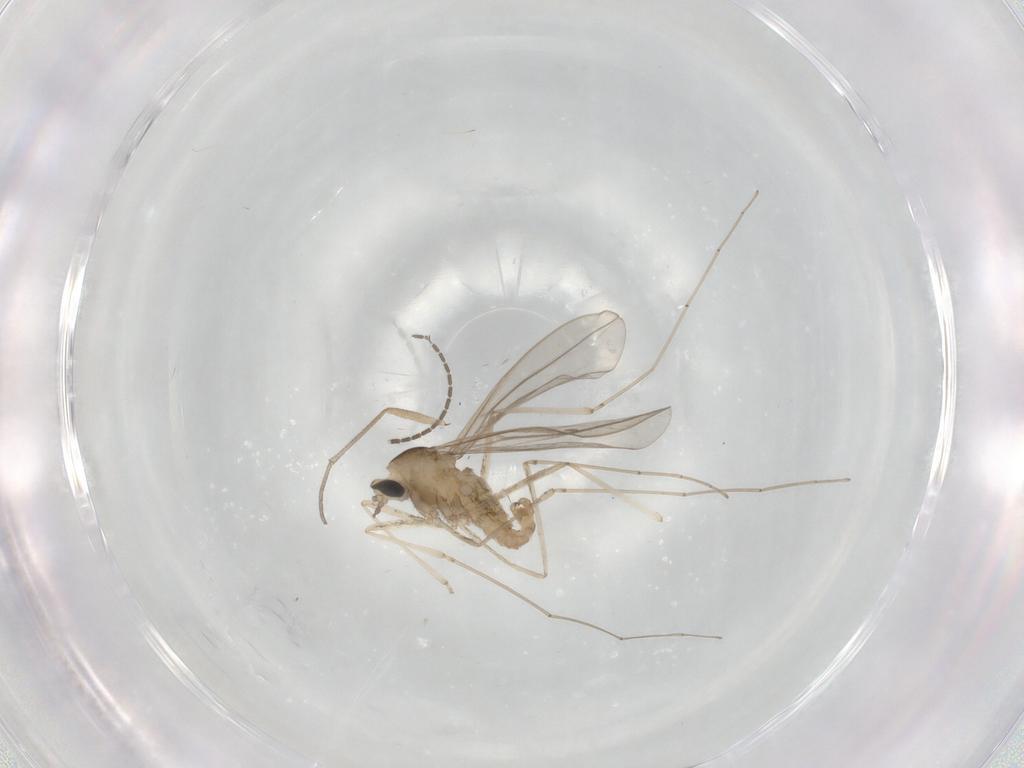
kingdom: Animalia
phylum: Arthropoda
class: Insecta
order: Diptera
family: Cecidomyiidae
